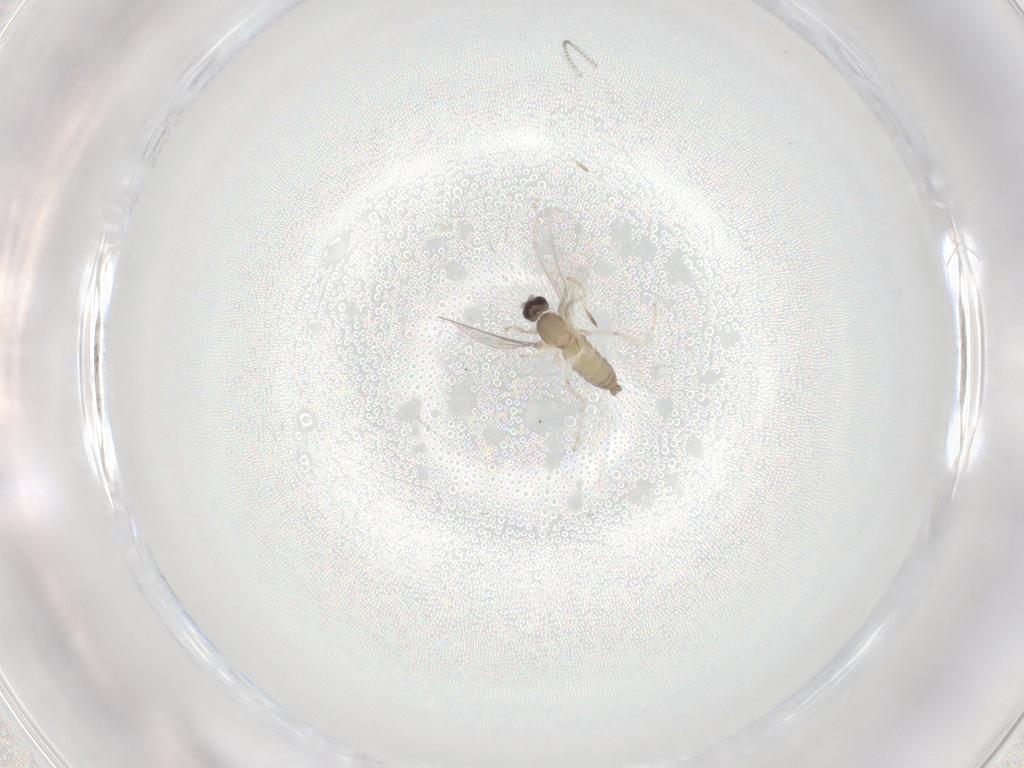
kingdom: Animalia
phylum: Arthropoda
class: Insecta
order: Diptera
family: Cecidomyiidae
